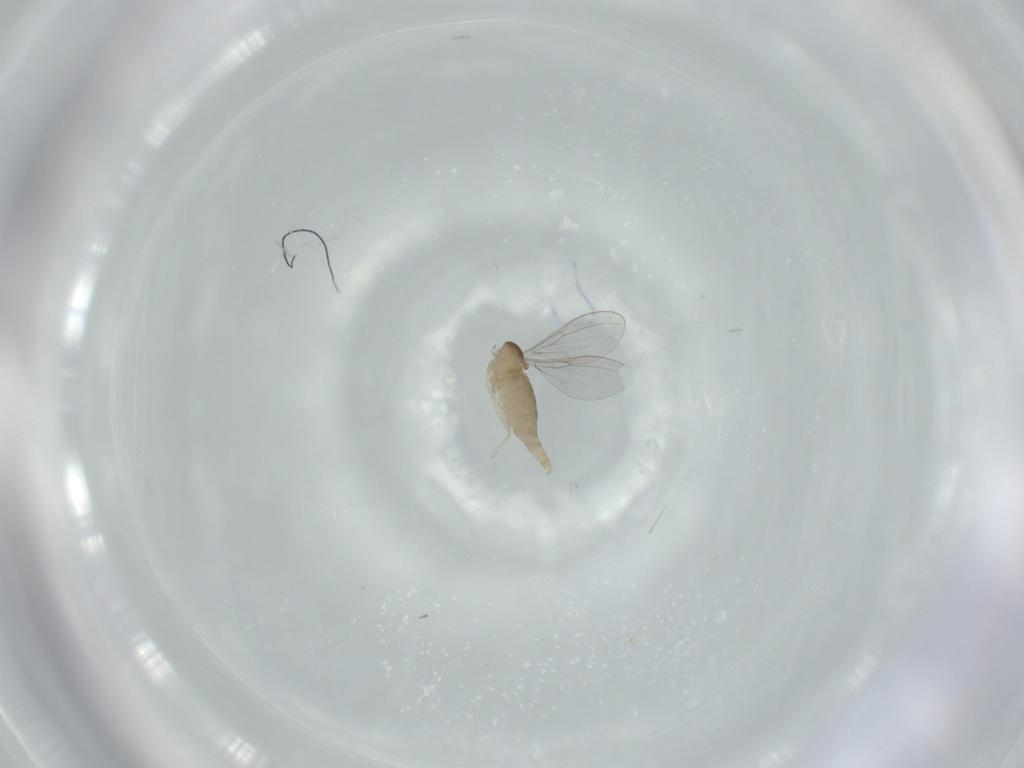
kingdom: Animalia
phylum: Arthropoda
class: Insecta
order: Diptera
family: Cecidomyiidae
